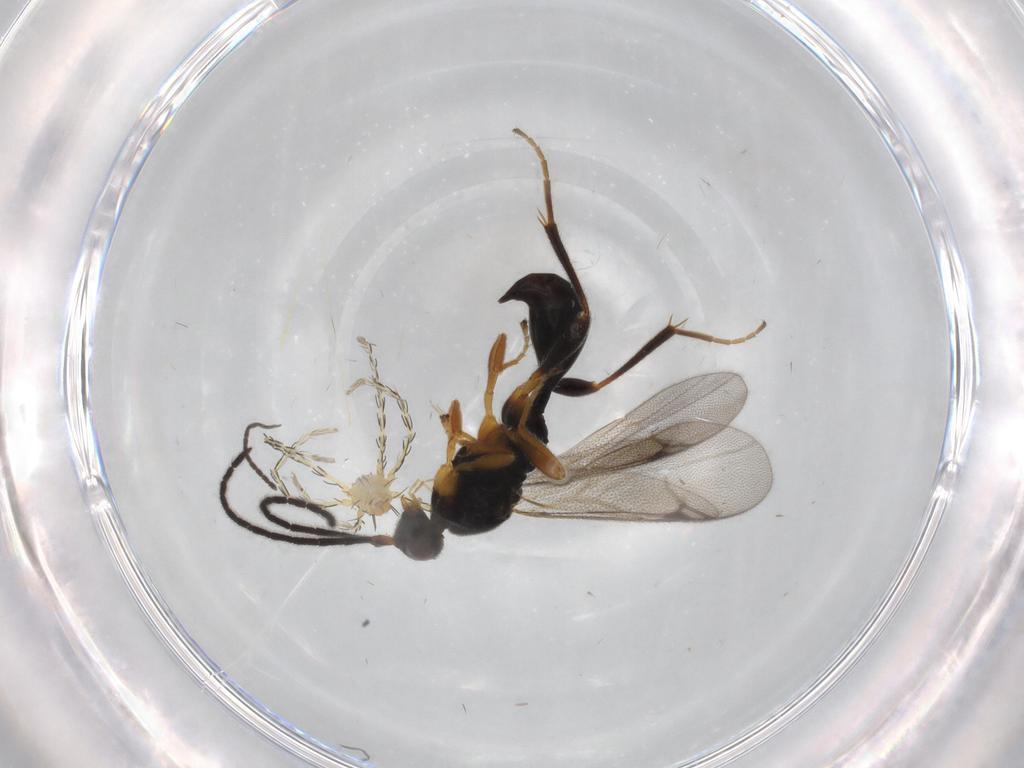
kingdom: Animalia
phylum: Arthropoda
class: Insecta
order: Hymenoptera
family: Proctotrupidae
